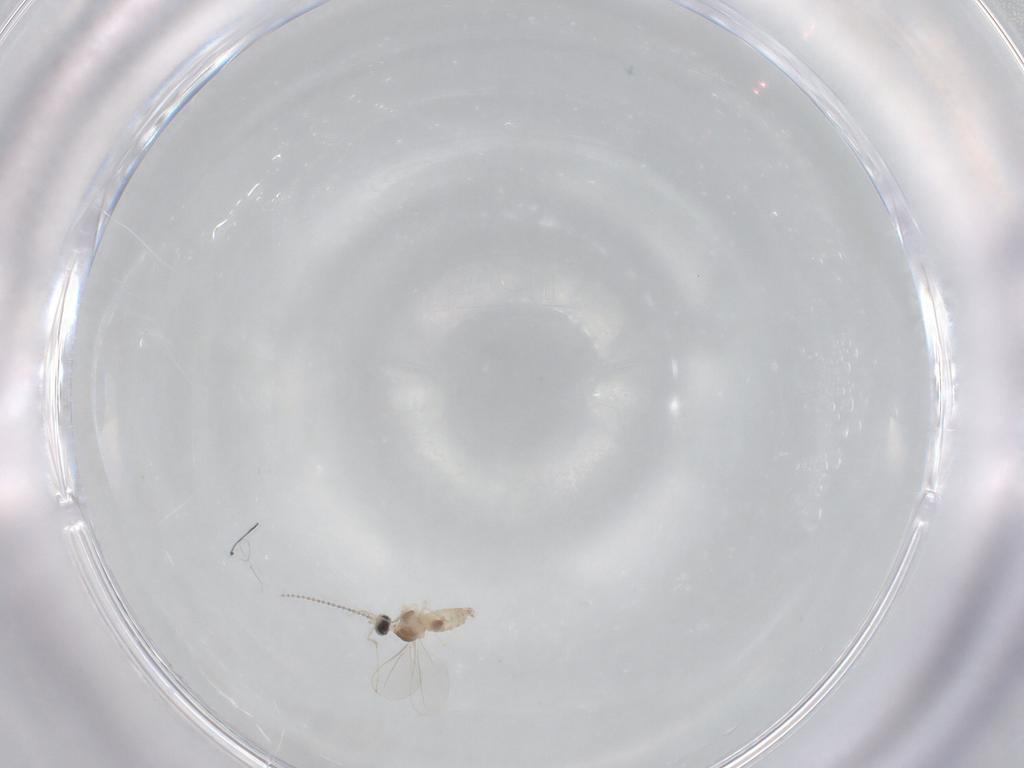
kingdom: Animalia
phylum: Arthropoda
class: Insecta
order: Diptera
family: Cecidomyiidae
